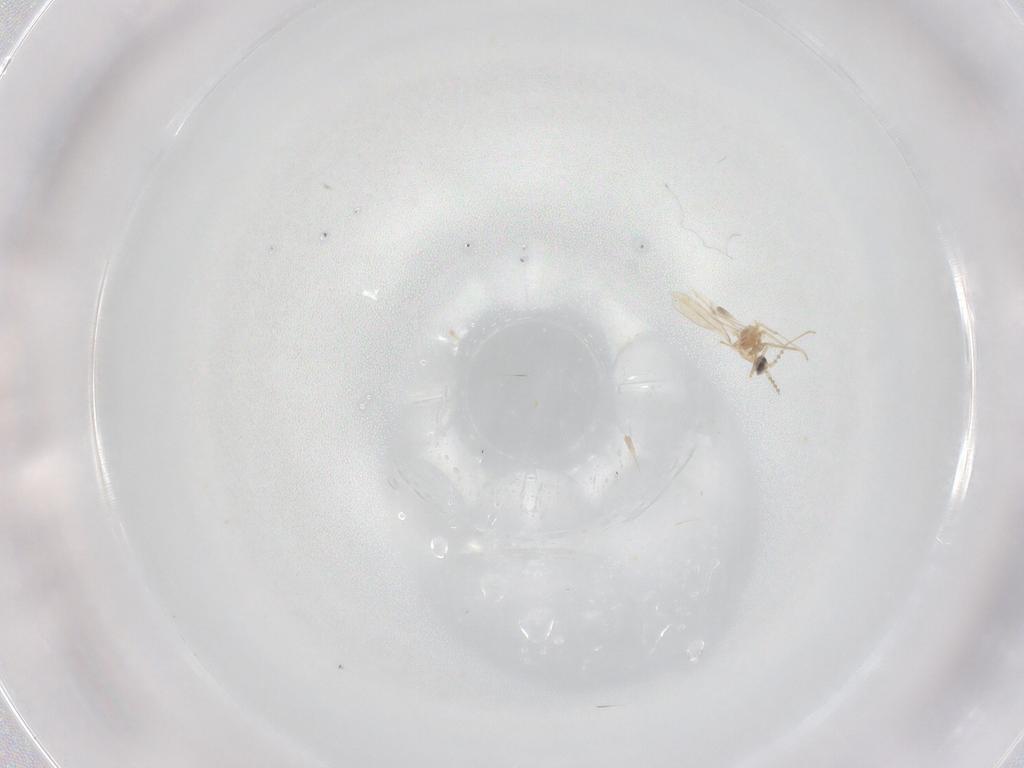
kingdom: Animalia
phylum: Arthropoda
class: Insecta
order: Diptera
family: Cecidomyiidae
